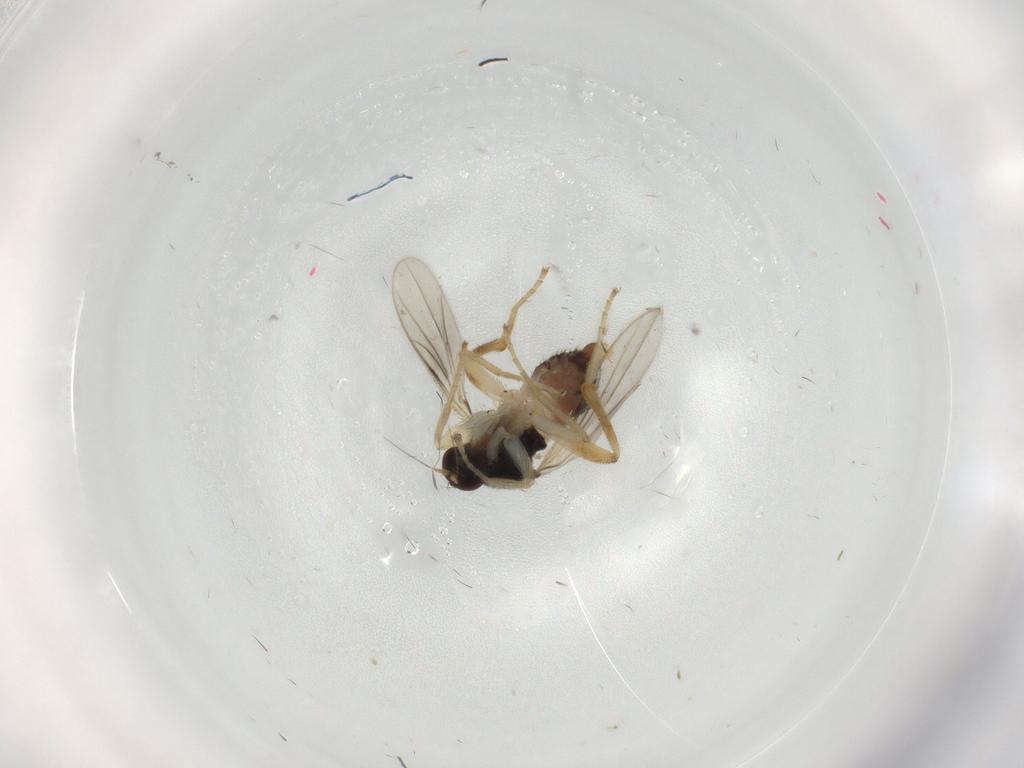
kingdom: Animalia
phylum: Arthropoda
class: Insecta
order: Diptera
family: Hybotidae
